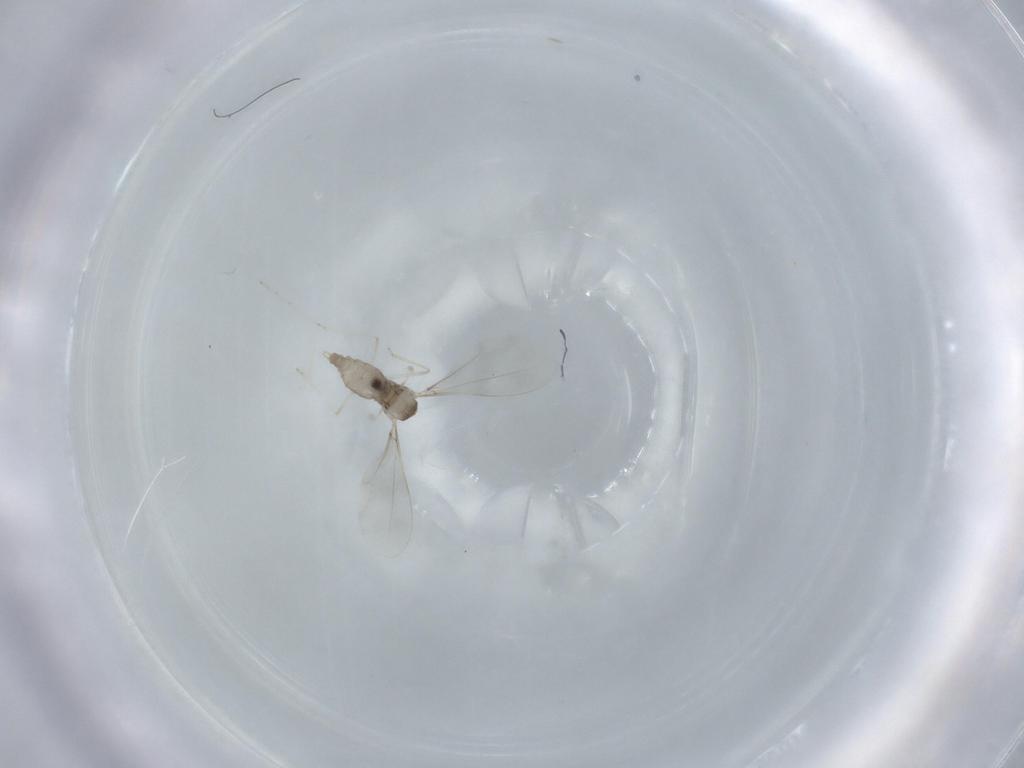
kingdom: Animalia
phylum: Arthropoda
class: Insecta
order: Diptera
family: Cecidomyiidae
